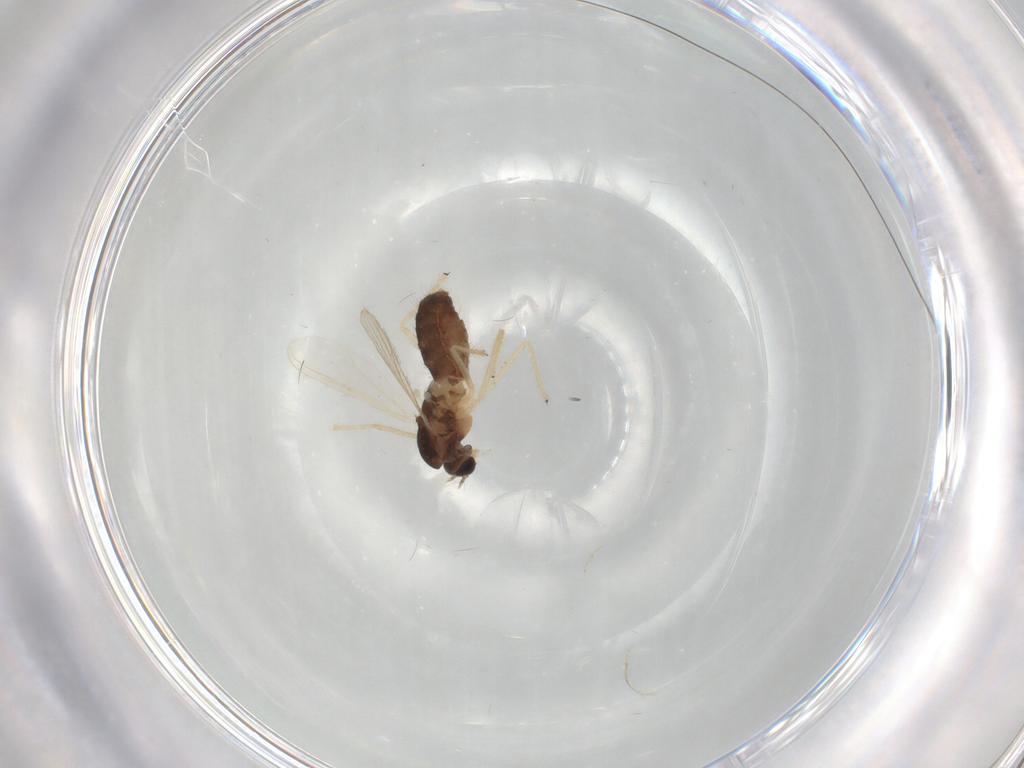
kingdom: Animalia
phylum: Arthropoda
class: Insecta
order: Diptera
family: Chironomidae
